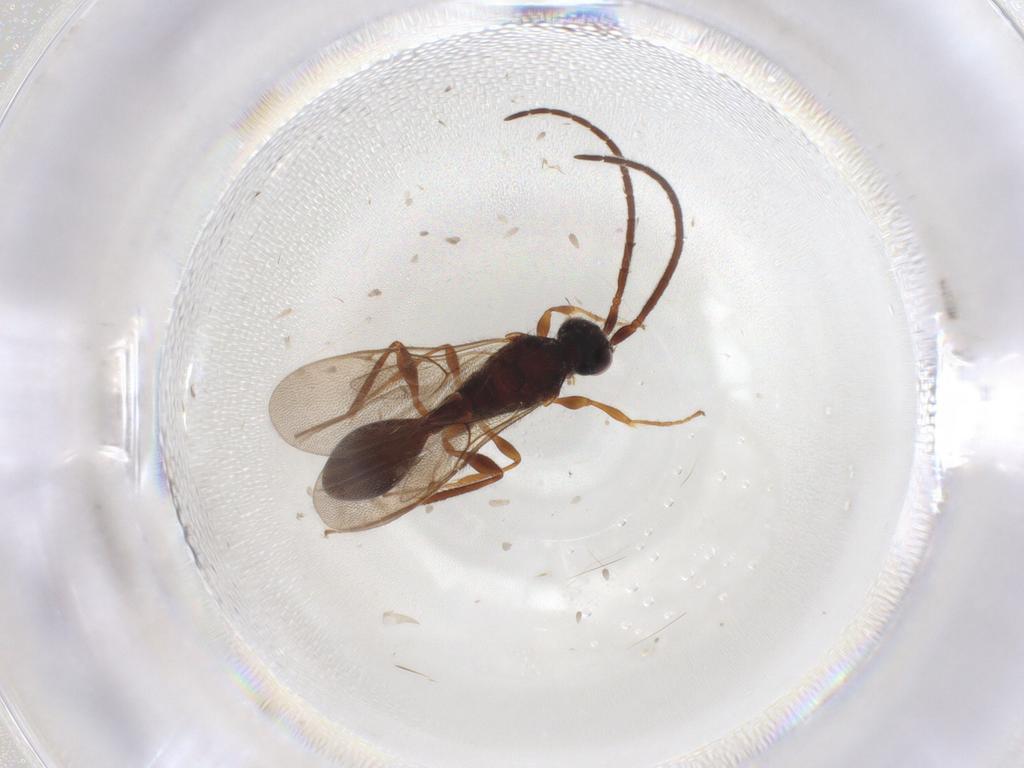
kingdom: Animalia
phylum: Arthropoda
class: Insecta
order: Hymenoptera
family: Formicidae
